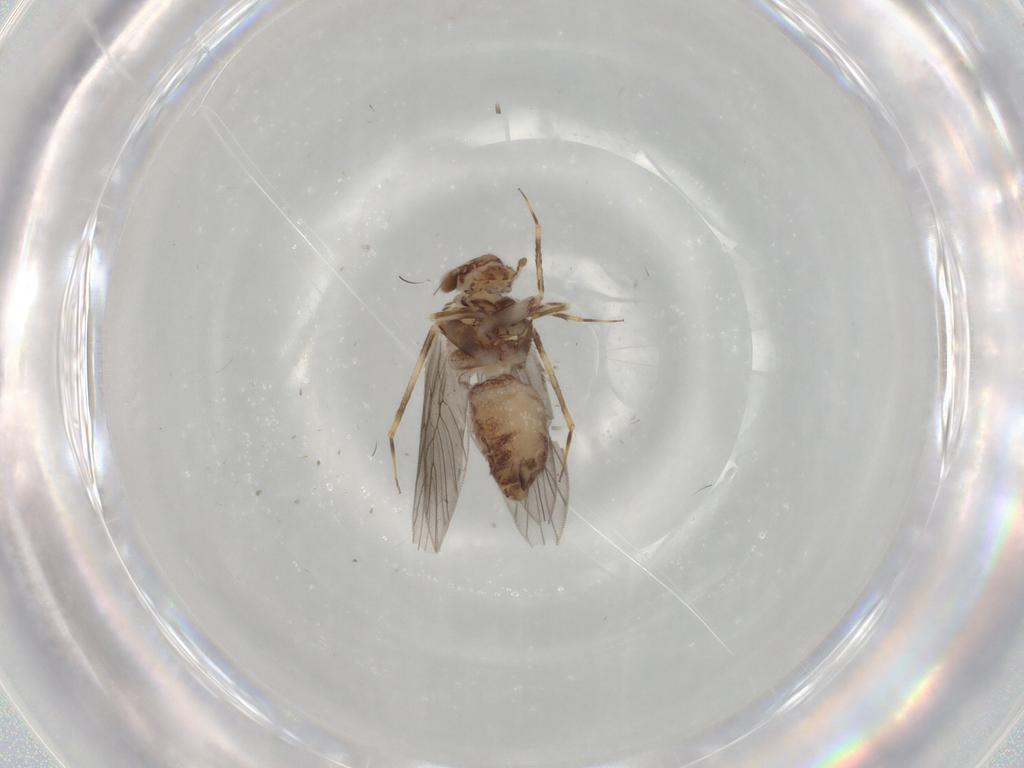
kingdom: Animalia
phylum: Arthropoda
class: Insecta
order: Psocodea
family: Lepidopsocidae
